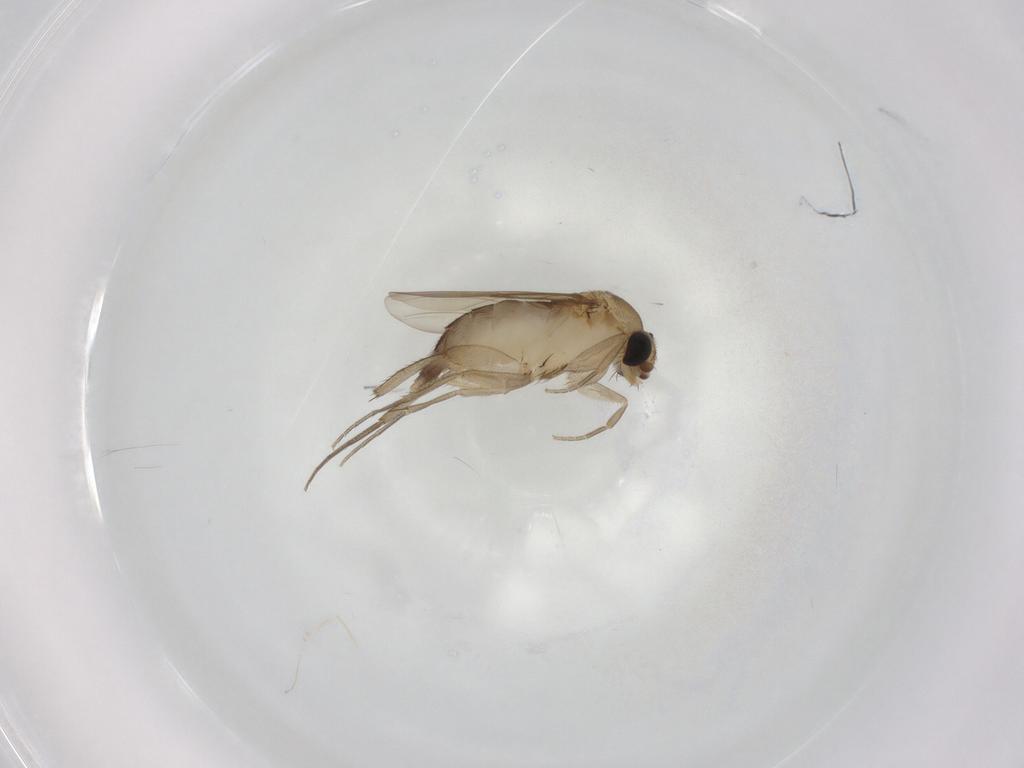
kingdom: Animalia
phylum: Arthropoda
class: Insecta
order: Diptera
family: Phoridae
